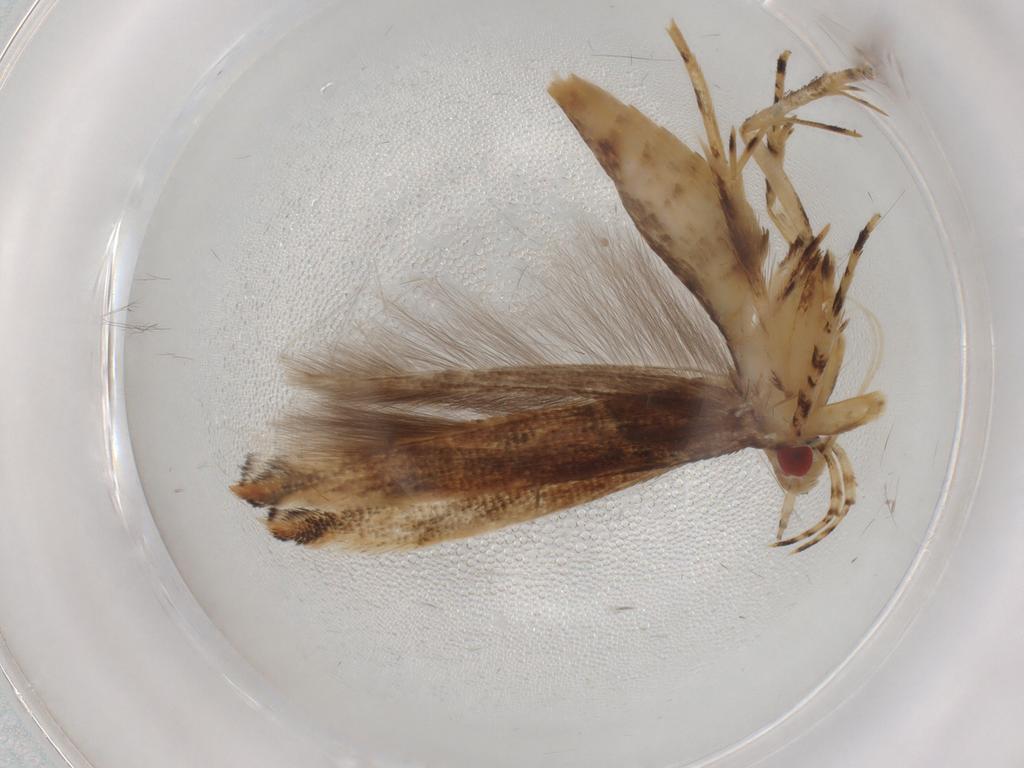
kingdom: Animalia
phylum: Arthropoda
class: Insecta
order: Lepidoptera
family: Cosmopterigidae
